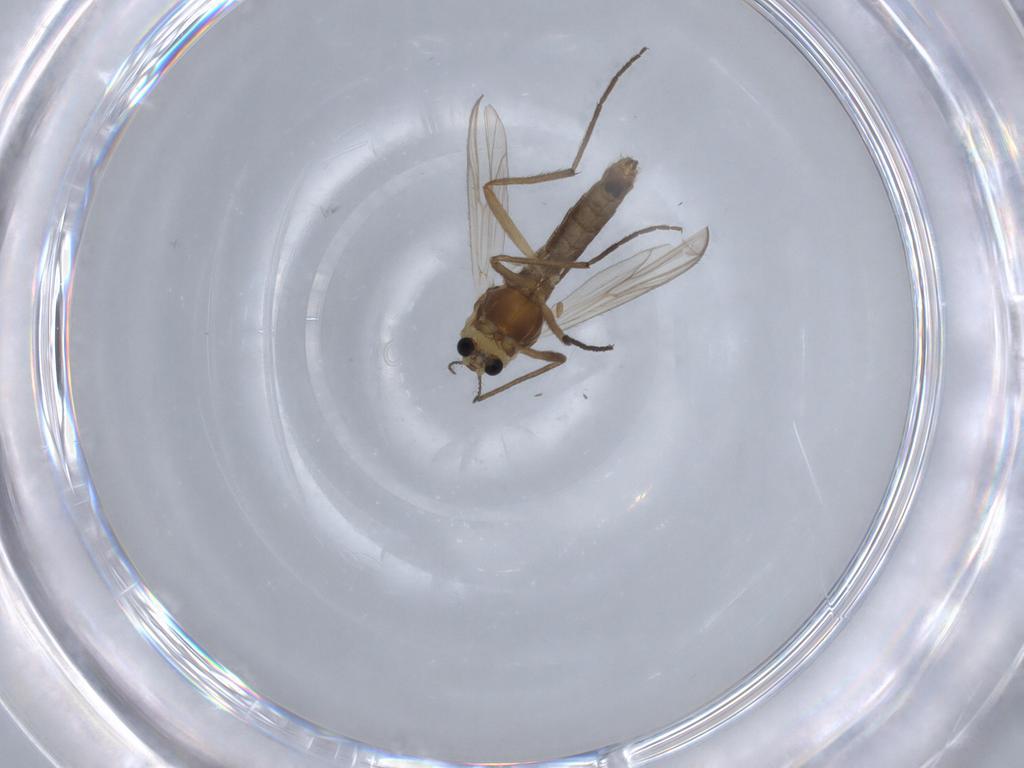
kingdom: Animalia
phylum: Arthropoda
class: Insecta
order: Diptera
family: Chironomidae
